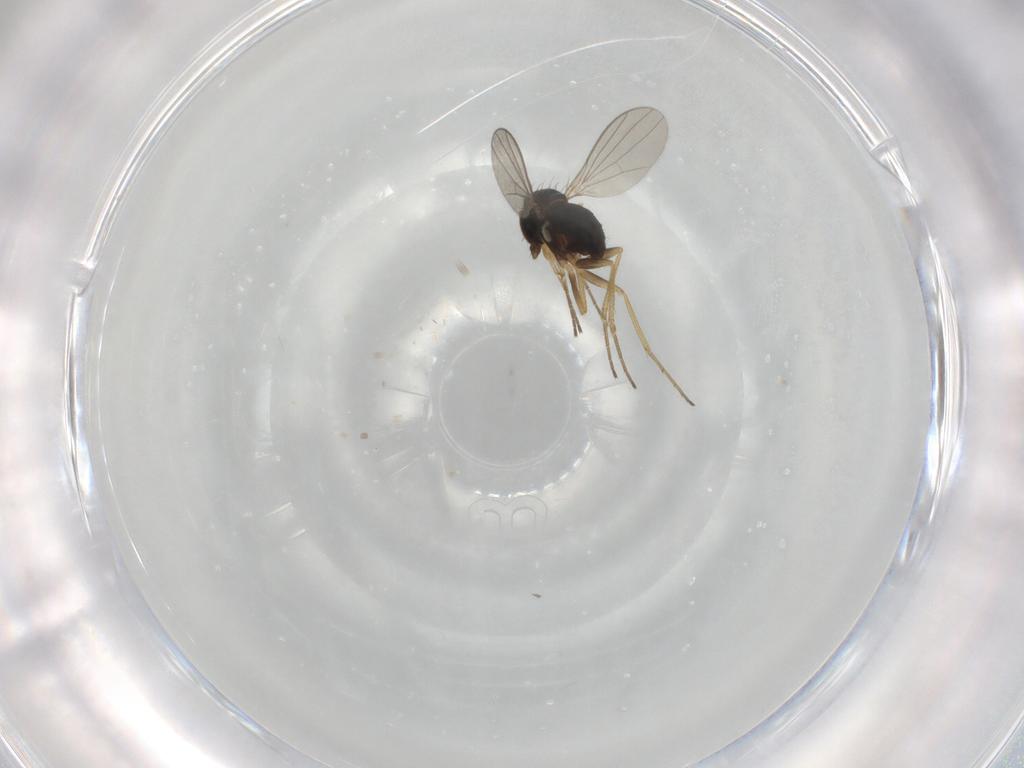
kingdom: Animalia
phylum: Arthropoda
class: Insecta
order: Diptera
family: Dolichopodidae
